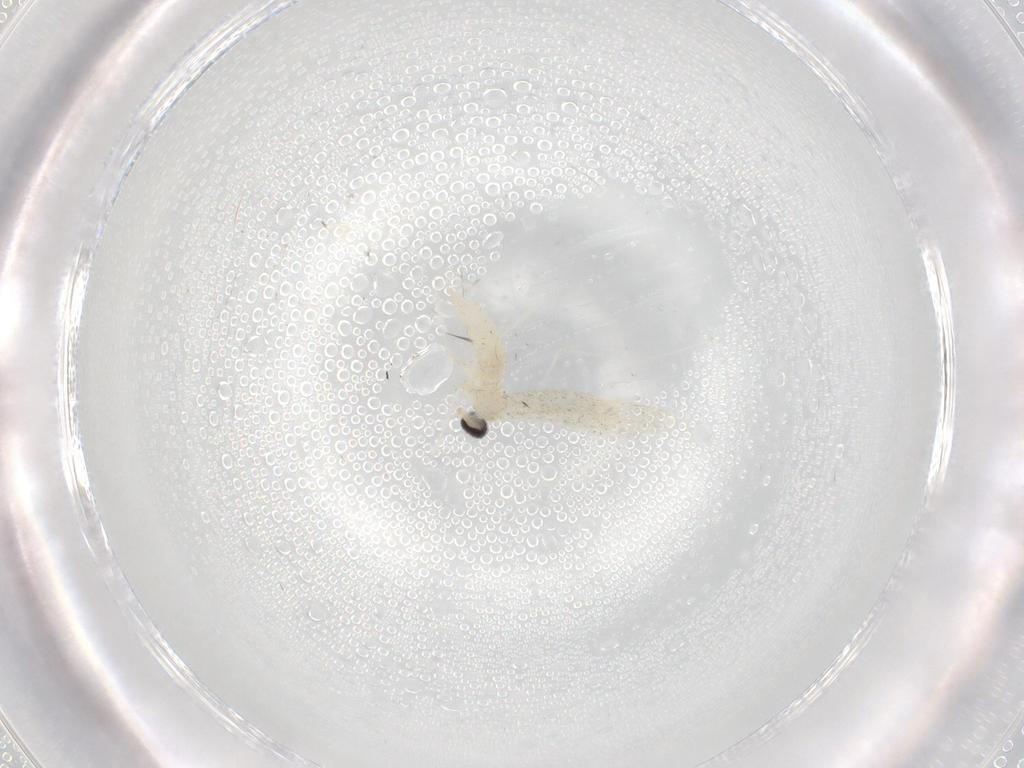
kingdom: Animalia
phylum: Arthropoda
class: Insecta
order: Diptera
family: Cecidomyiidae
